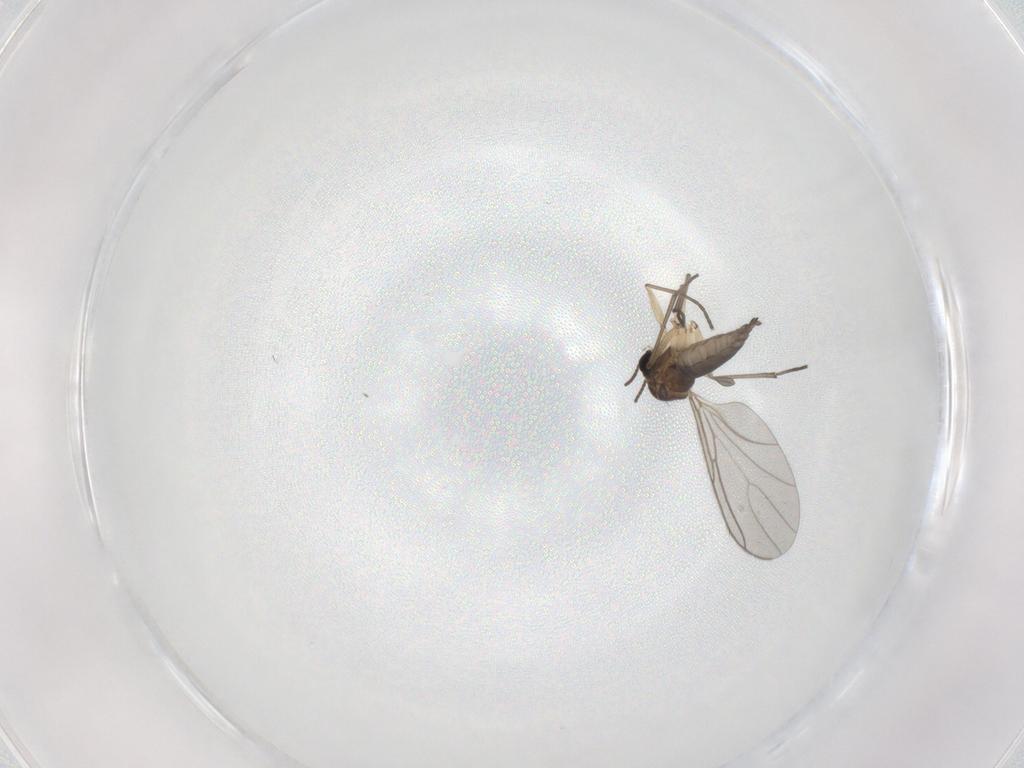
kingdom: Animalia
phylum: Arthropoda
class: Insecta
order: Diptera
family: Sciaridae
